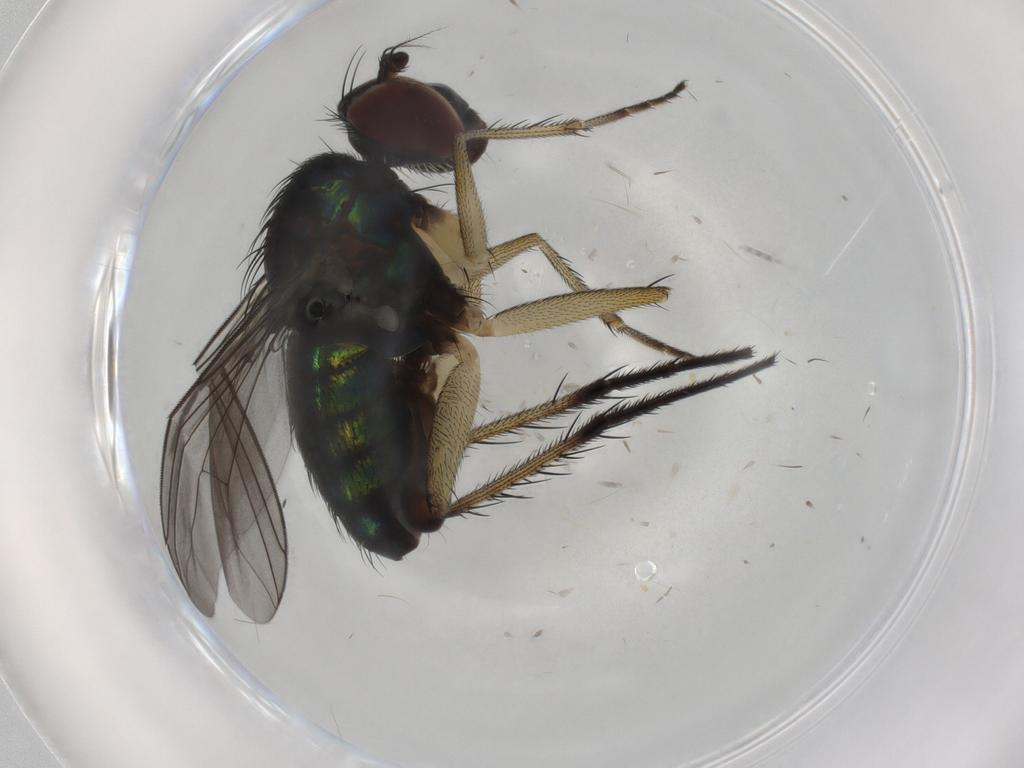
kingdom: Animalia
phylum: Arthropoda
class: Insecta
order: Diptera
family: Dolichopodidae
